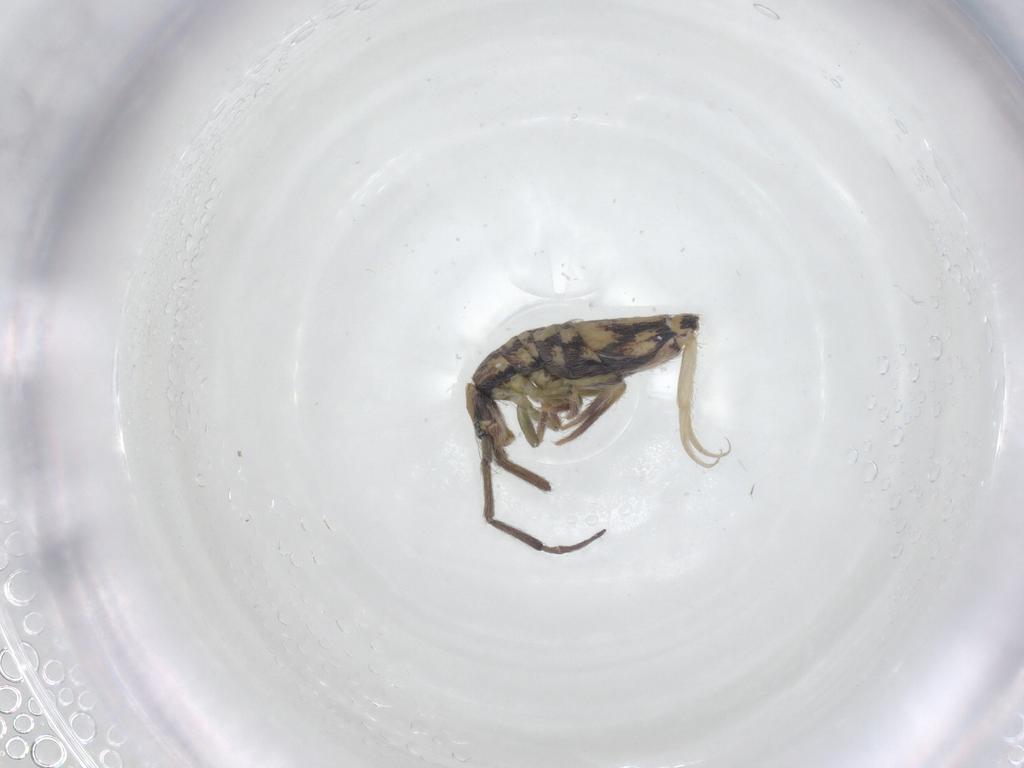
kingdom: Animalia
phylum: Arthropoda
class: Collembola
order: Entomobryomorpha
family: Entomobryidae
